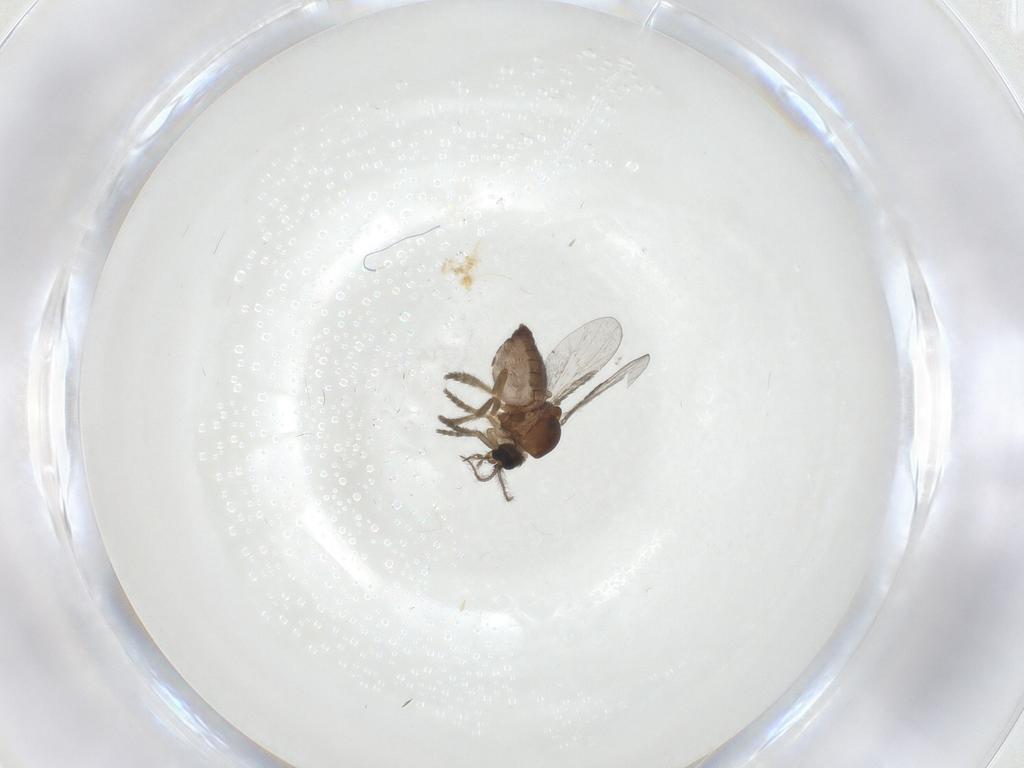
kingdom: Animalia
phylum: Arthropoda
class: Insecta
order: Diptera
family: Ceratopogonidae
